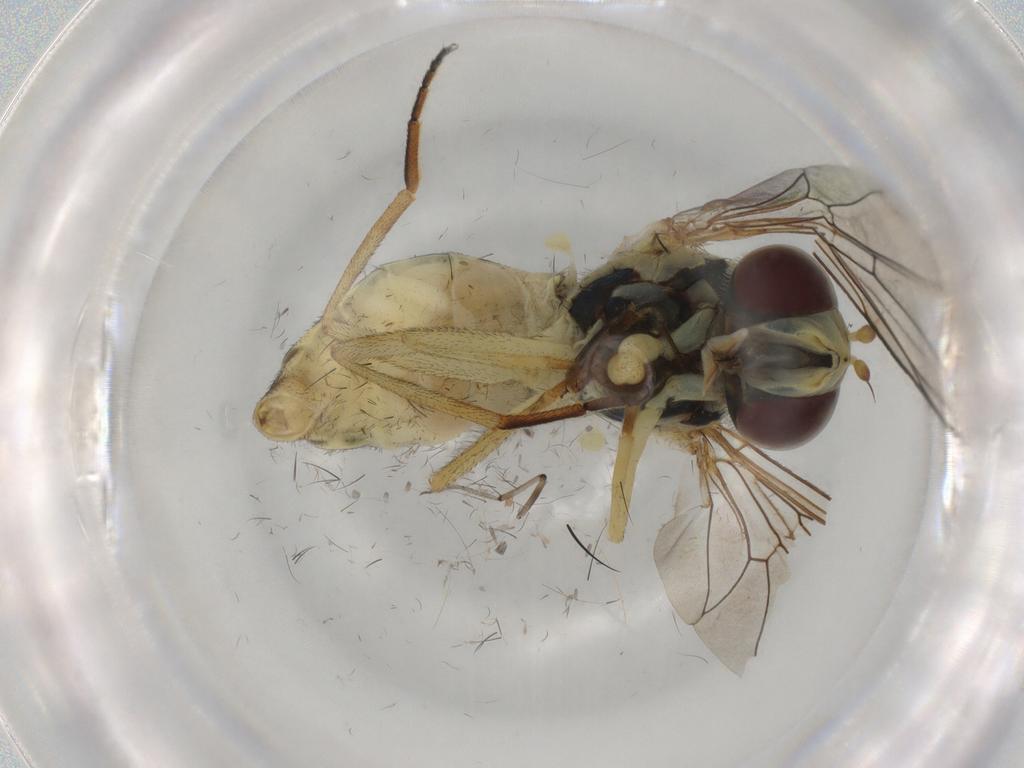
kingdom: Animalia
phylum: Arthropoda
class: Insecta
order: Diptera
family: Syrphidae
